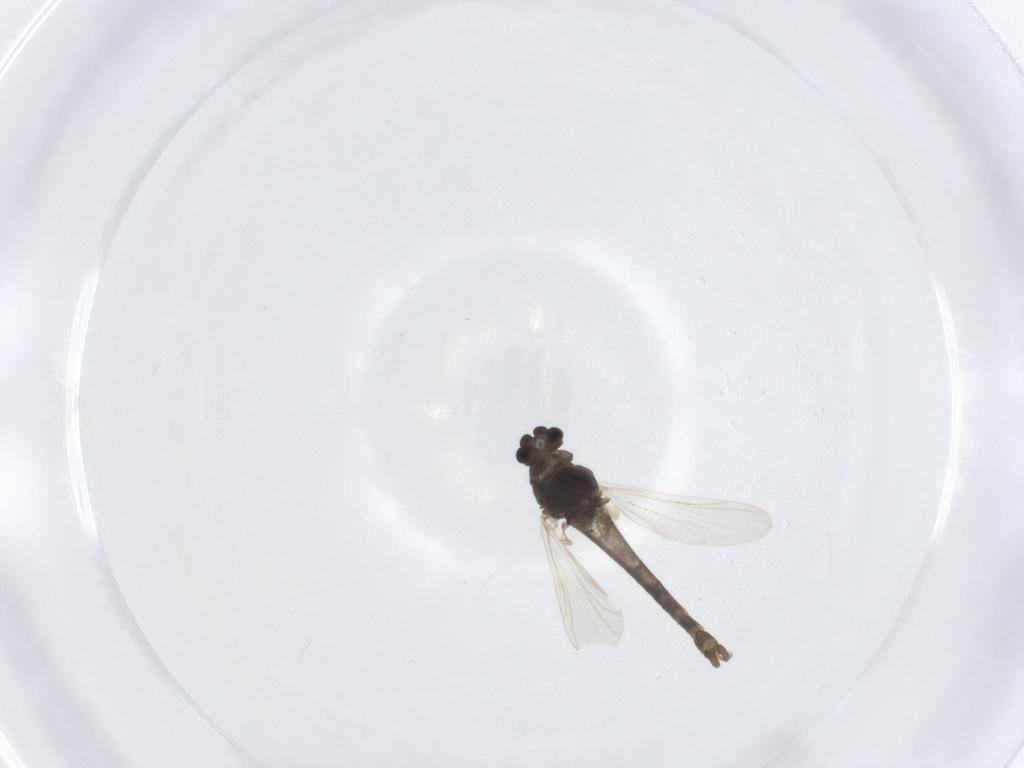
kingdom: Animalia
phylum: Arthropoda
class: Insecta
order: Diptera
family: Chironomidae
